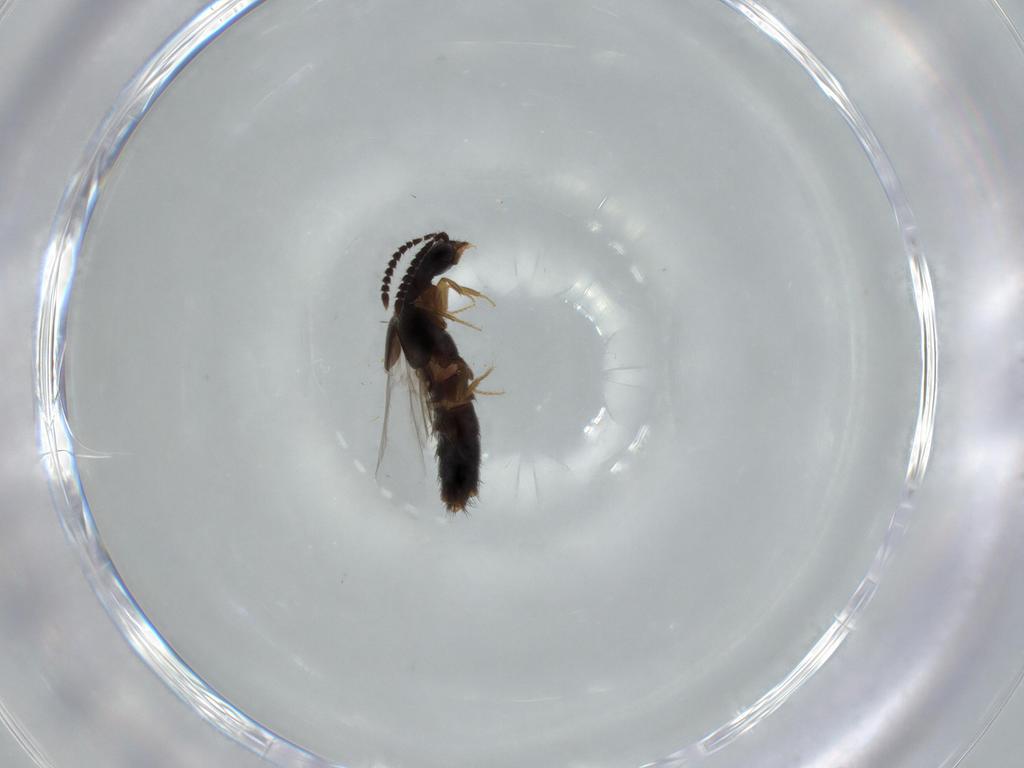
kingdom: Animalia
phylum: Arthropoda
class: Insecta
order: Coleoptera
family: Staphylinidae
